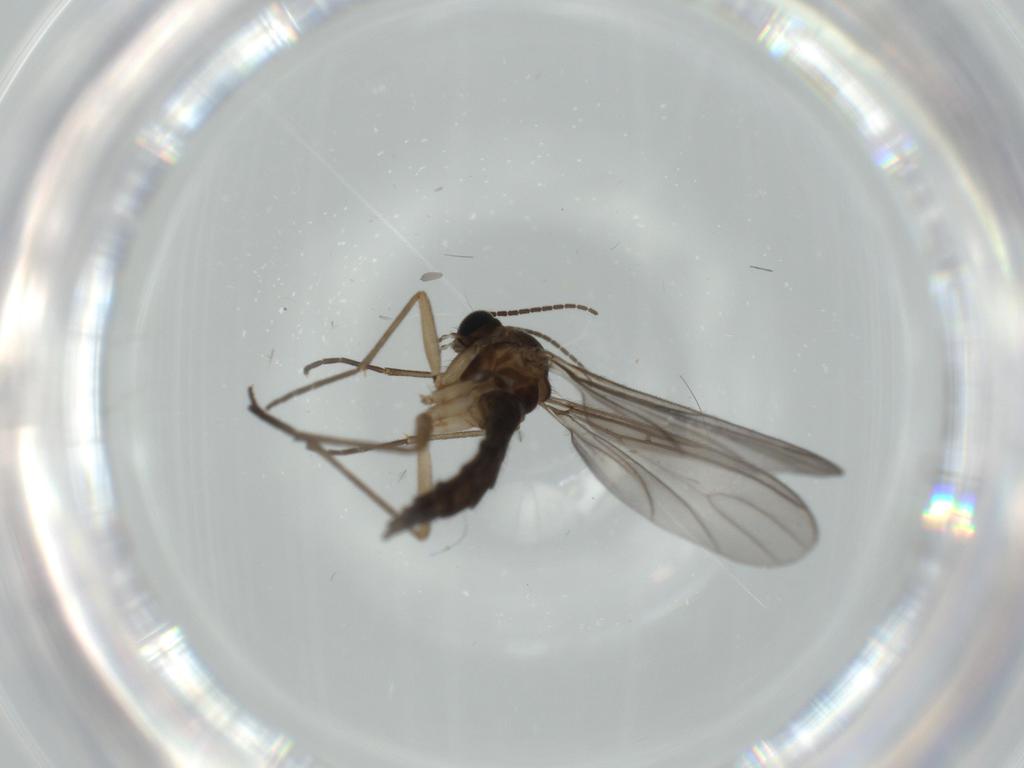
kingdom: Animalia
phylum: Arthropoda
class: Insecta
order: Diptera
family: Sciaridae
